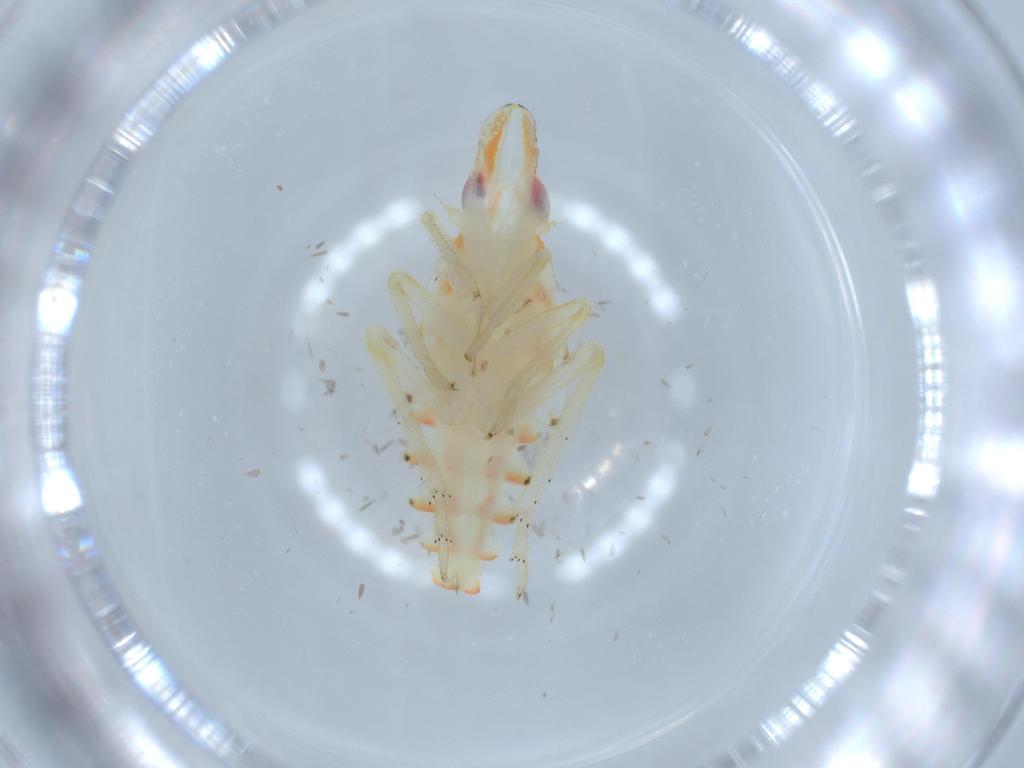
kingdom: Animalia
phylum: Arthropoda
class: Insecta
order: Hemiptera
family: Tropiduchidae
